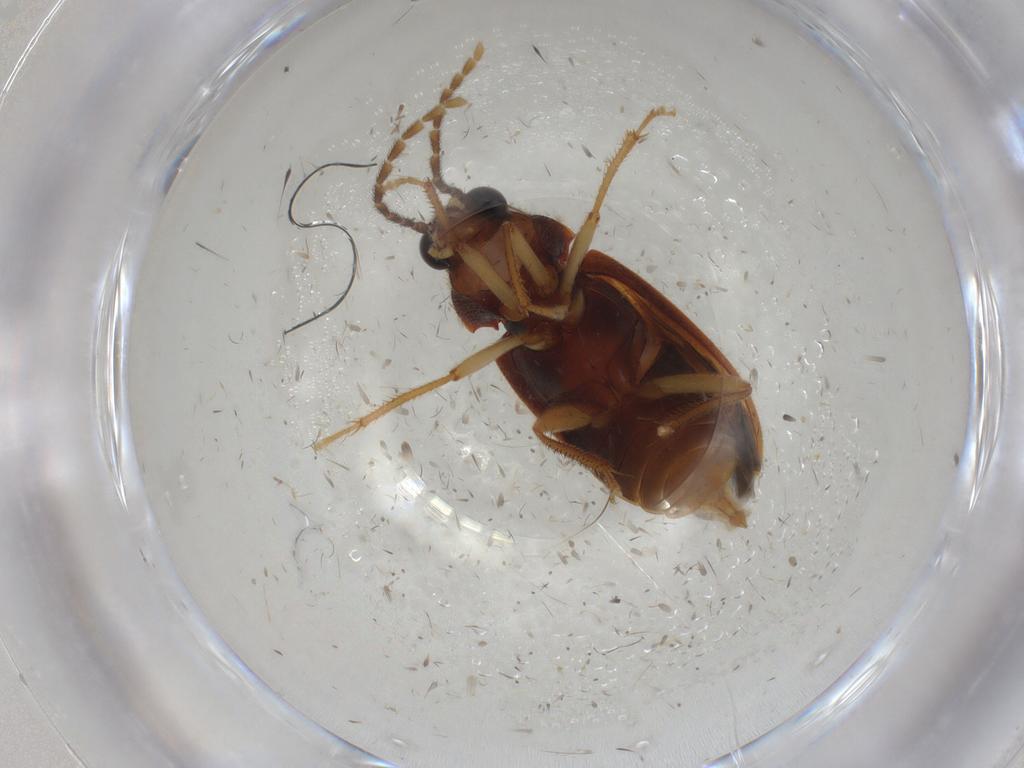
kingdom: Animalia
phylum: Arthropoda
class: Insecta
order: Coleoptera
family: Ptilodactylidae
